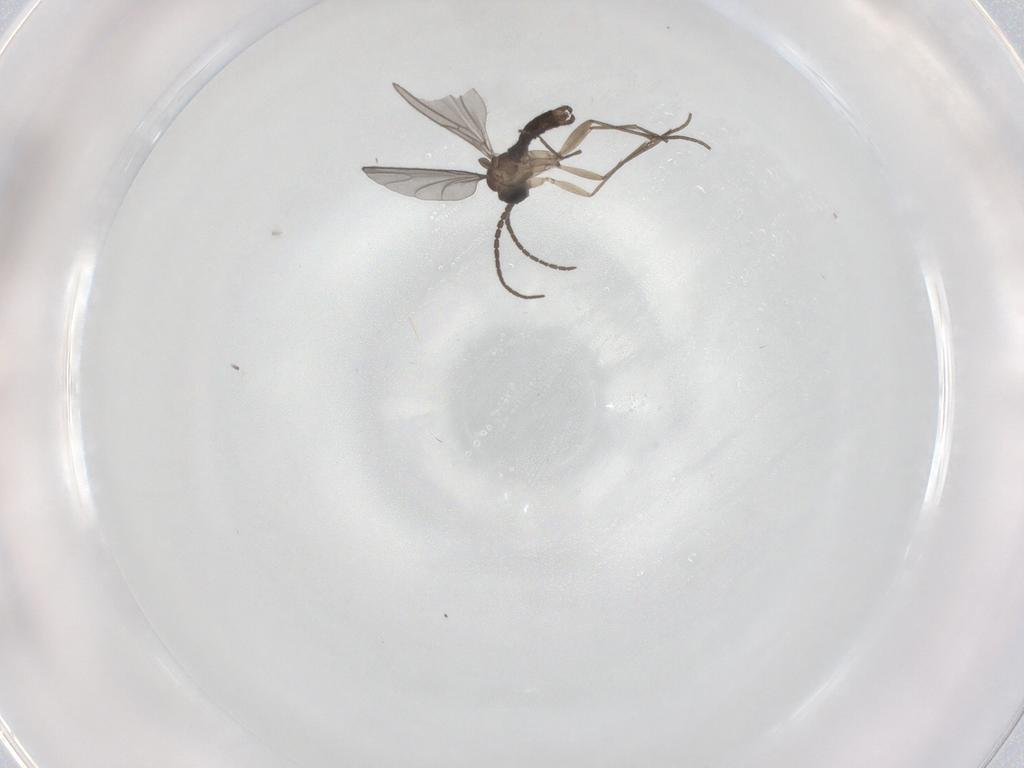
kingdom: Animalia
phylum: Arthropoda
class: Insecta
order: Diptera
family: Sciaridae
